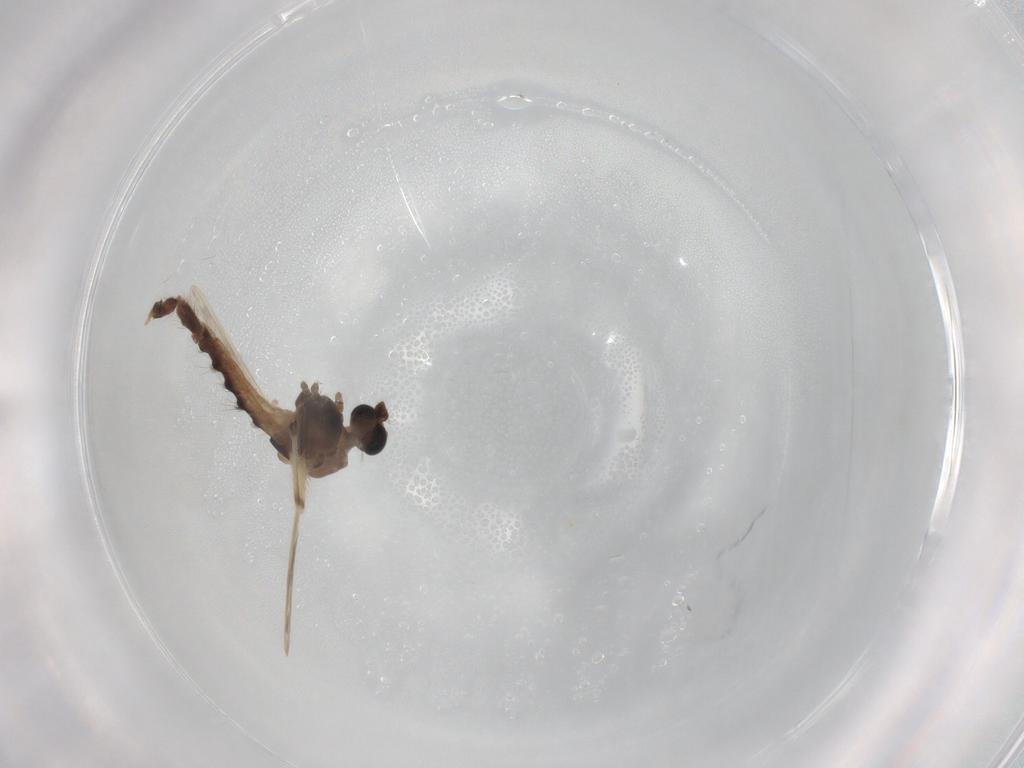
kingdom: Animalia
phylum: Arthropoda
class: Insecta
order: Diptera
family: Chironomidae
